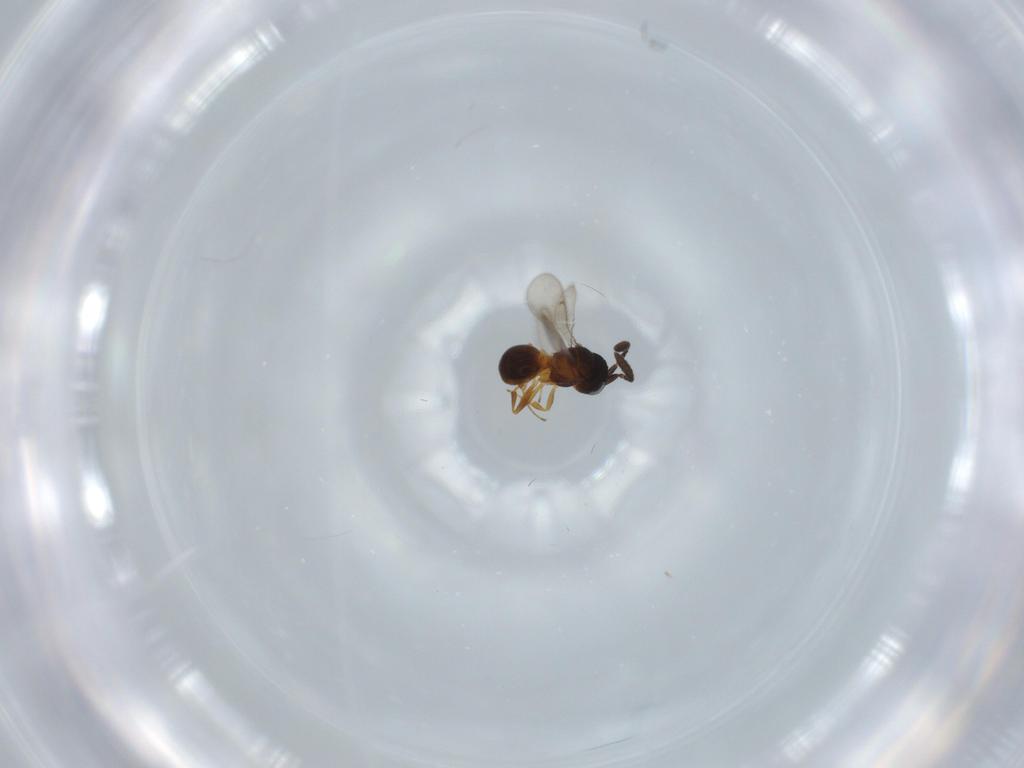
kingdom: Animalia
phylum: Arthropoda
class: Insecta
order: Hymenoptera
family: Scelionidae
